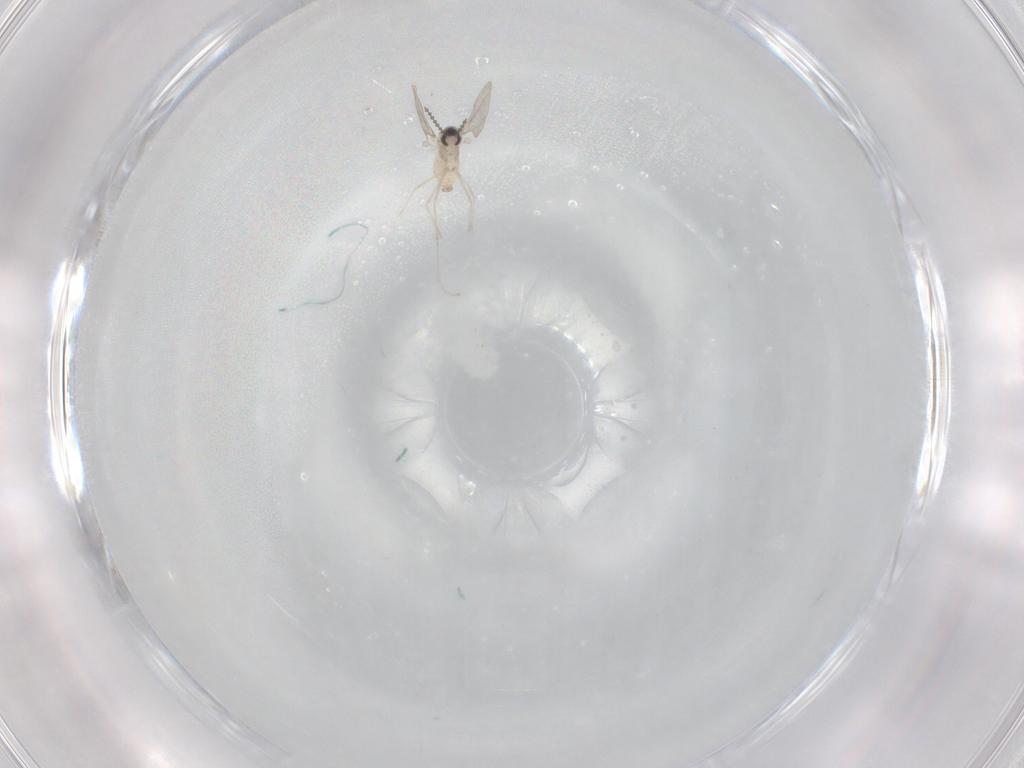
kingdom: Animalia
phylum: Arthropoda
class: Insecta
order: Diptera
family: Cecidomyiidae
